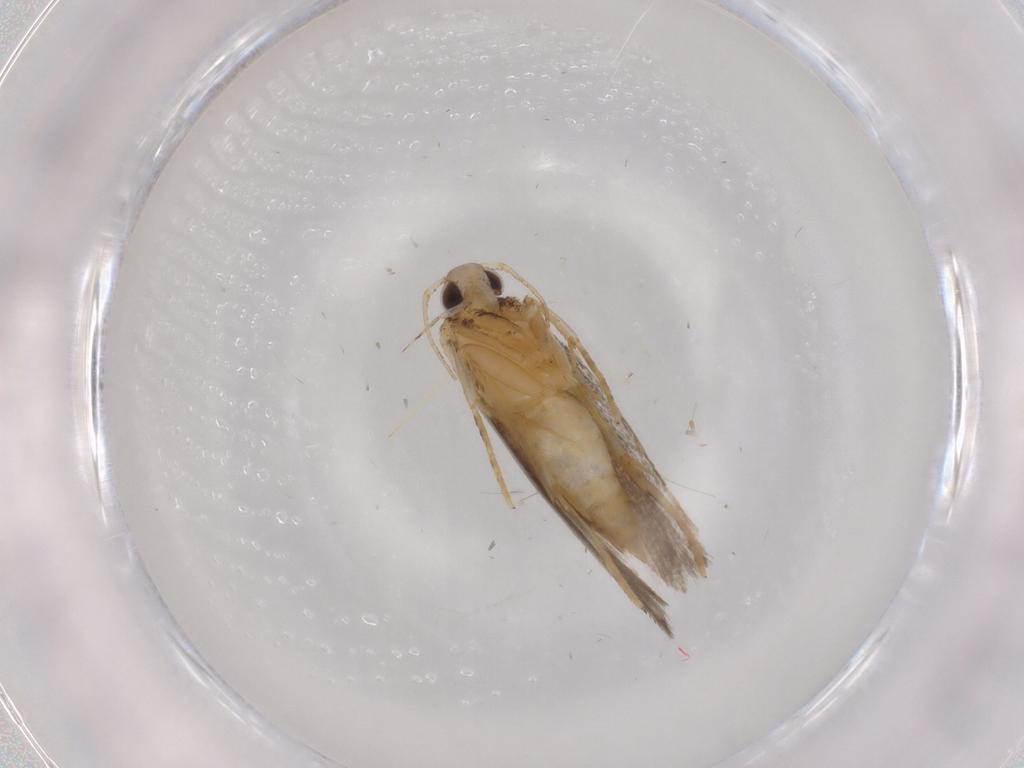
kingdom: Animalia
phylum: Arthropoda
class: Insecta
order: Lepidoptera
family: Autostichidae
